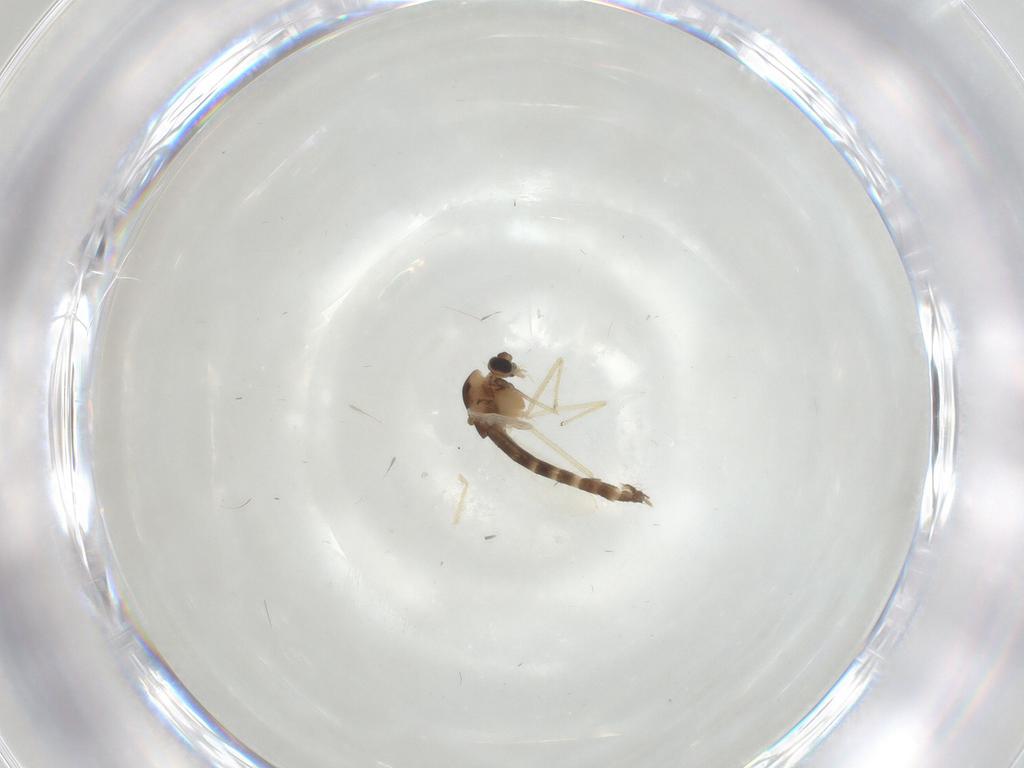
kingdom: Animalia
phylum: Arthropoda
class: Insecta
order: Diptera
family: Chironomidae
